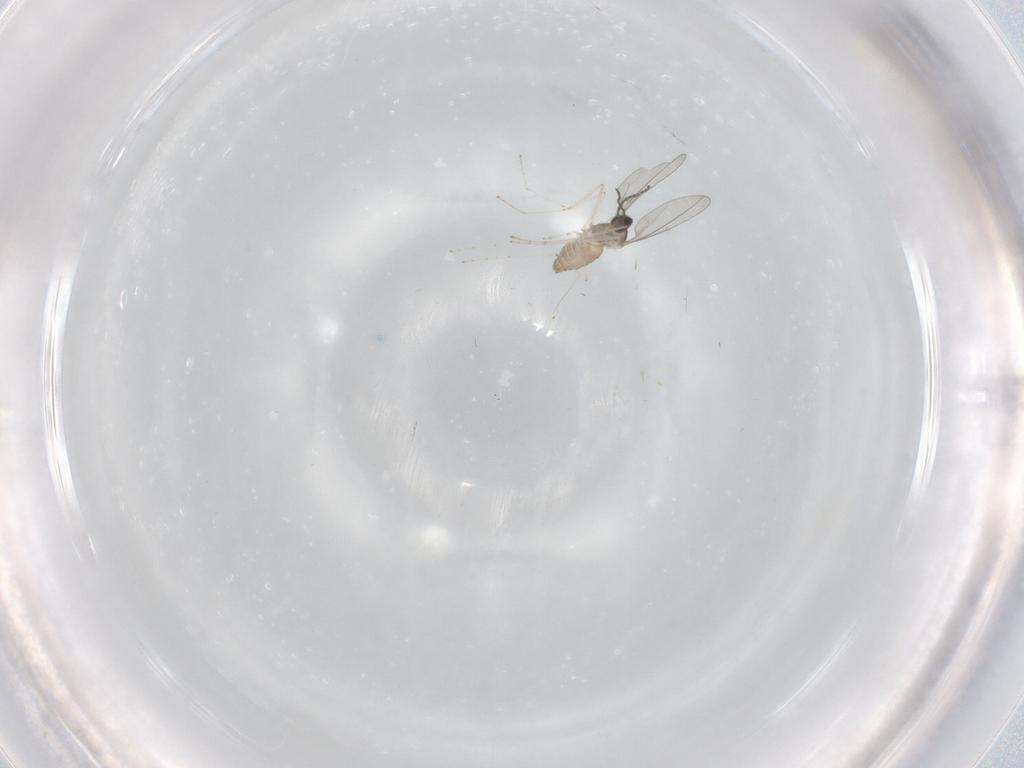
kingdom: Animalia
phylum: Arthropoda
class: Insecta
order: Diptera
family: Cecidomyiidae
